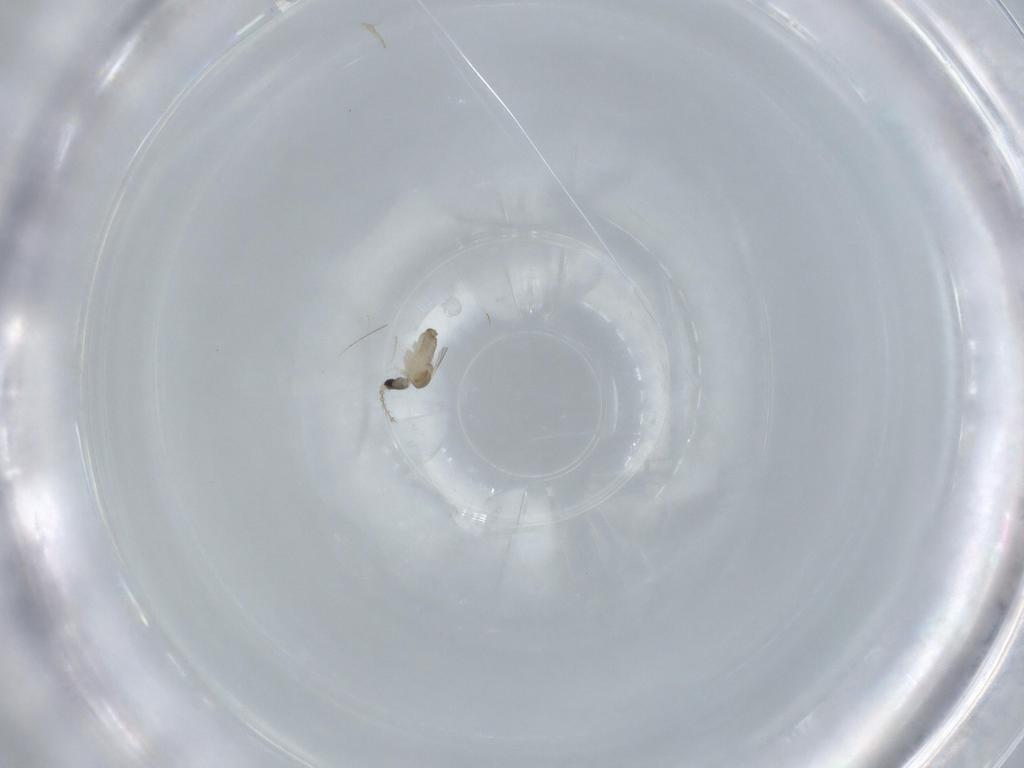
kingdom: Animalia
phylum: Arthropoda
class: Insecta
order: Diptera
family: Cecidomyiidae
